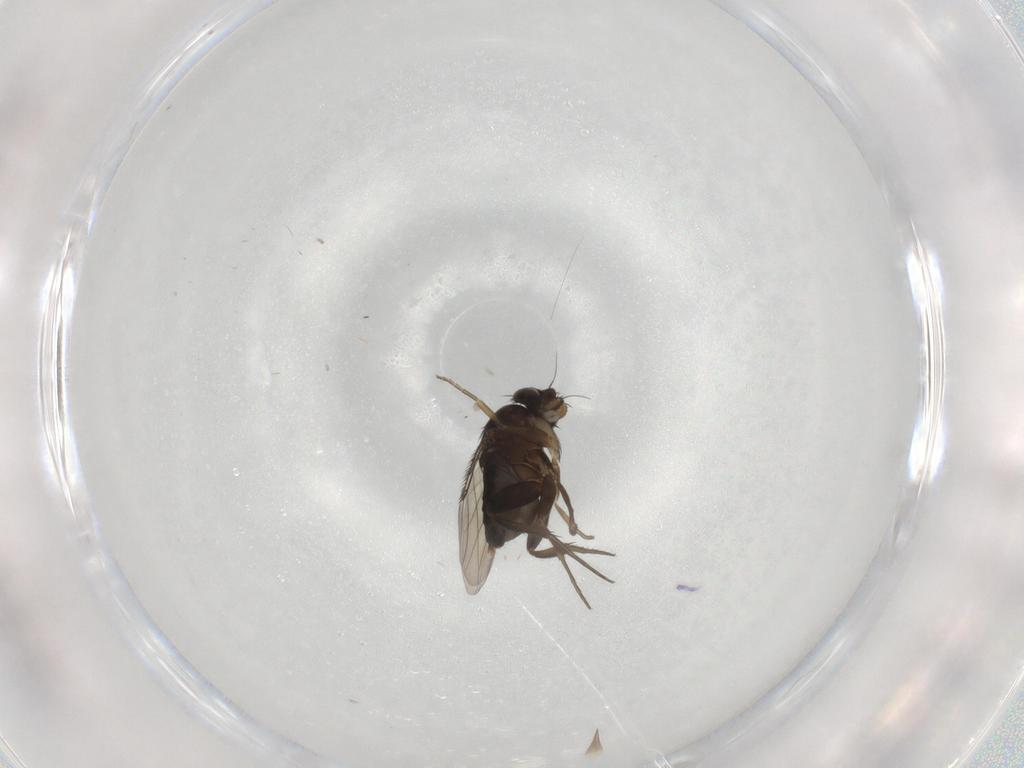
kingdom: Animalia
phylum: Arthropoda
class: Insecta
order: Diptera
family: Phoridae
